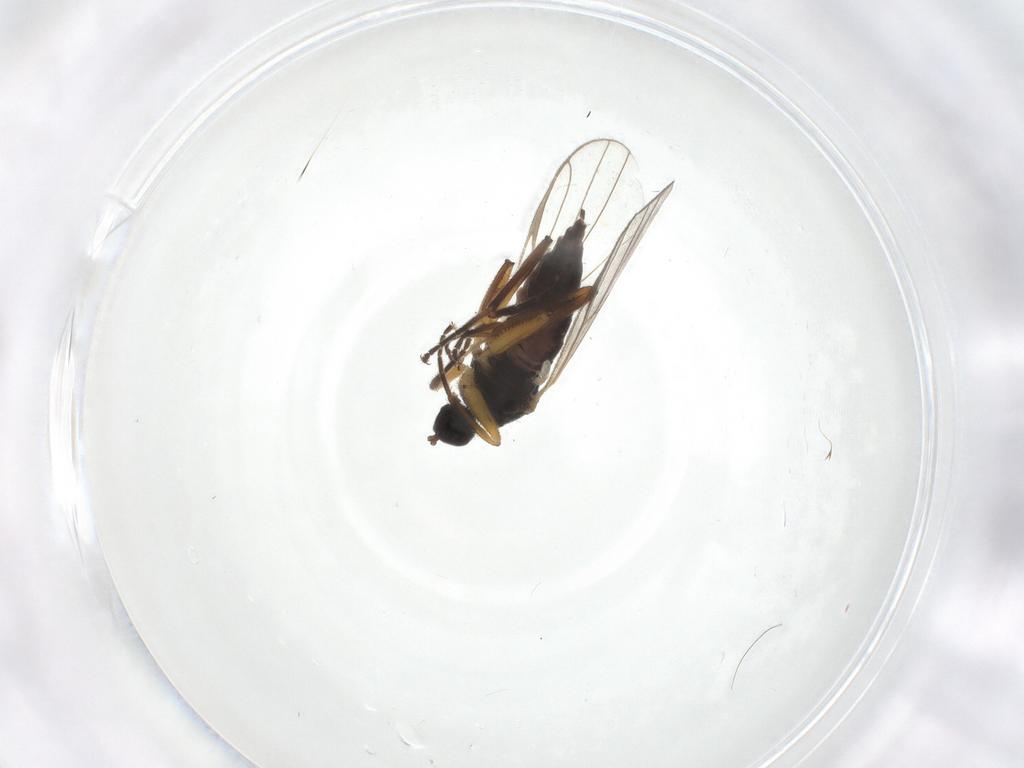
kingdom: Animalia
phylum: Arthropoda
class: Insecta
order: Diptera
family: Hybotidae
